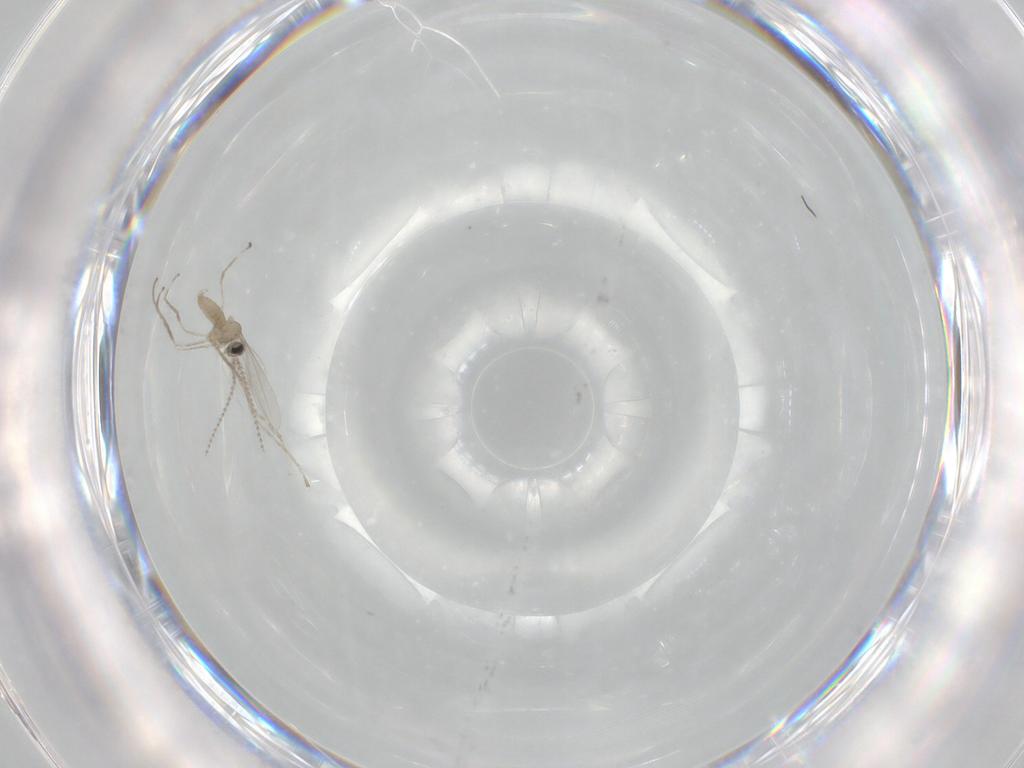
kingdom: Animalia
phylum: Arthropoda
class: Insecta
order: Diptera
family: Cecidomyiidae
